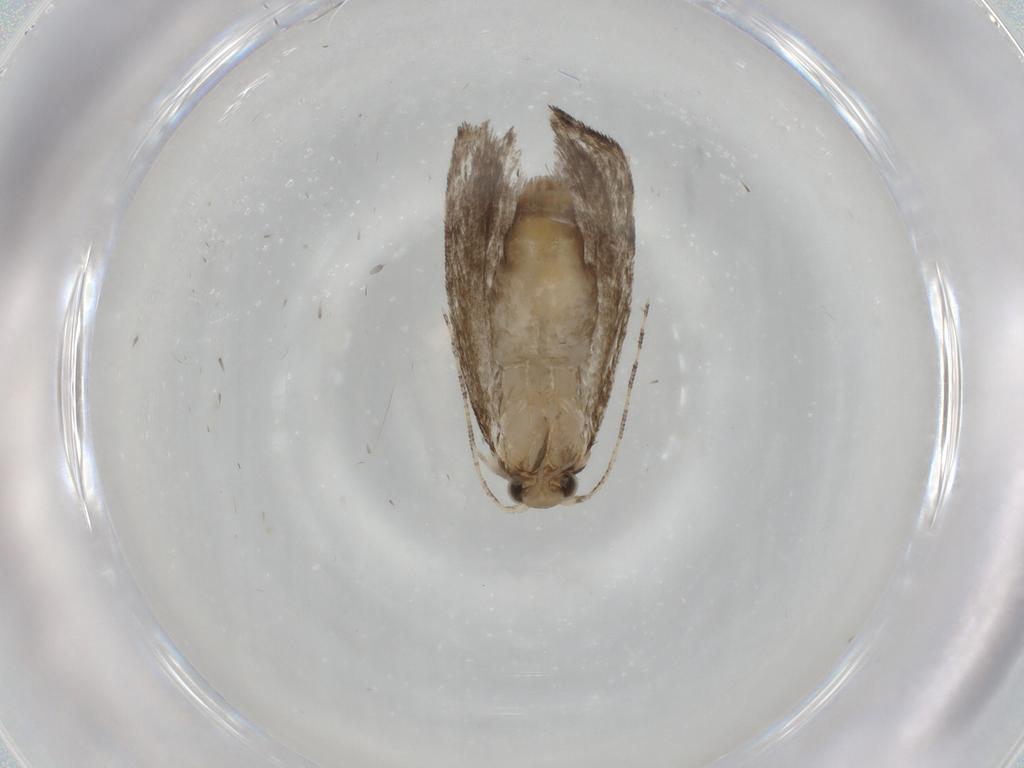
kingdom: Animalia
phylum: Arthropoda
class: Insecta
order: Lepidoptera
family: Tineidae
